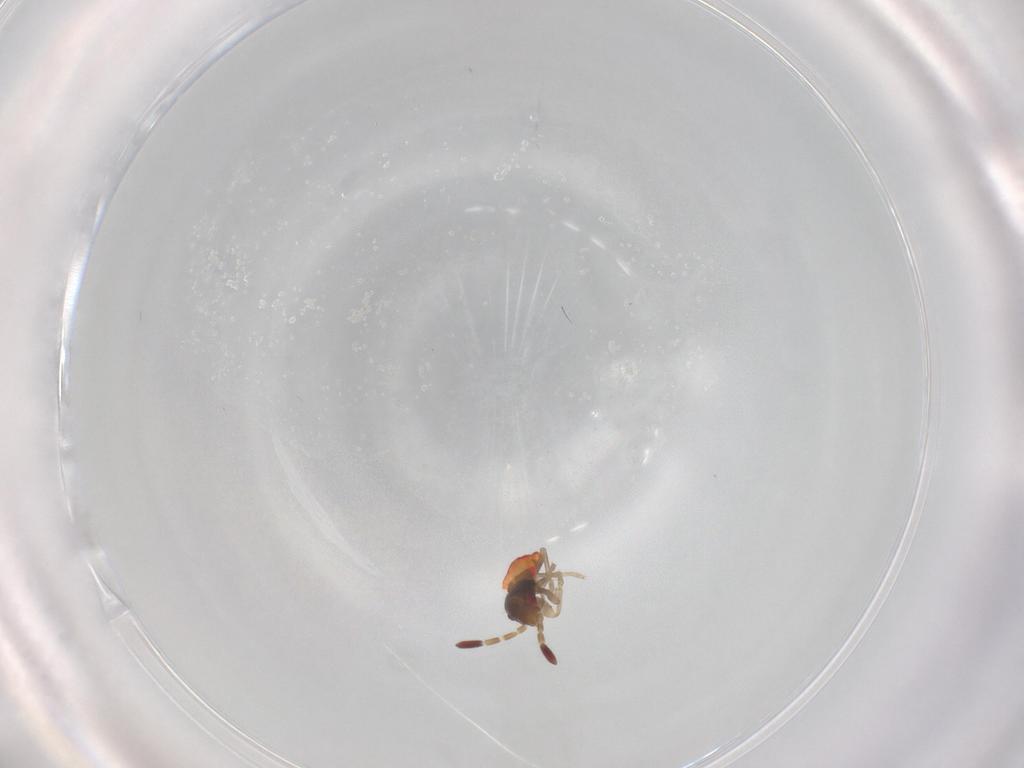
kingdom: Animalia
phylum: Arthropoda
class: Insecta
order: Hemiptera
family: Rhyparochromidae
